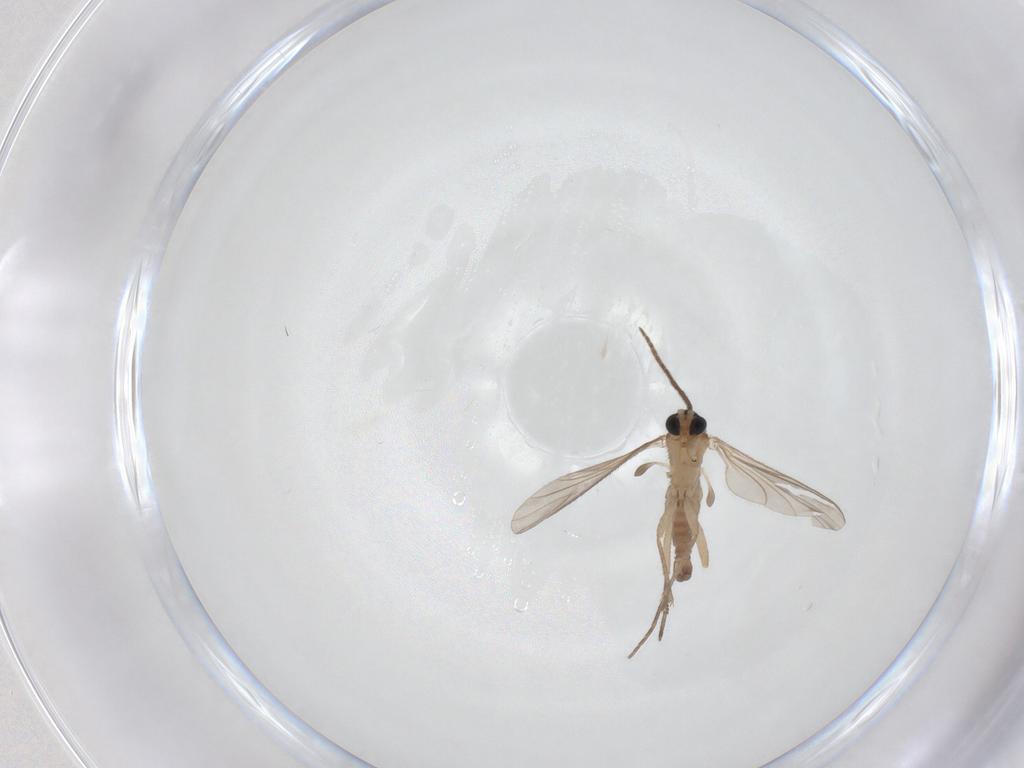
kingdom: Animalia
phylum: Arthropoda
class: Insecta
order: Diptera
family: Sciaridae
